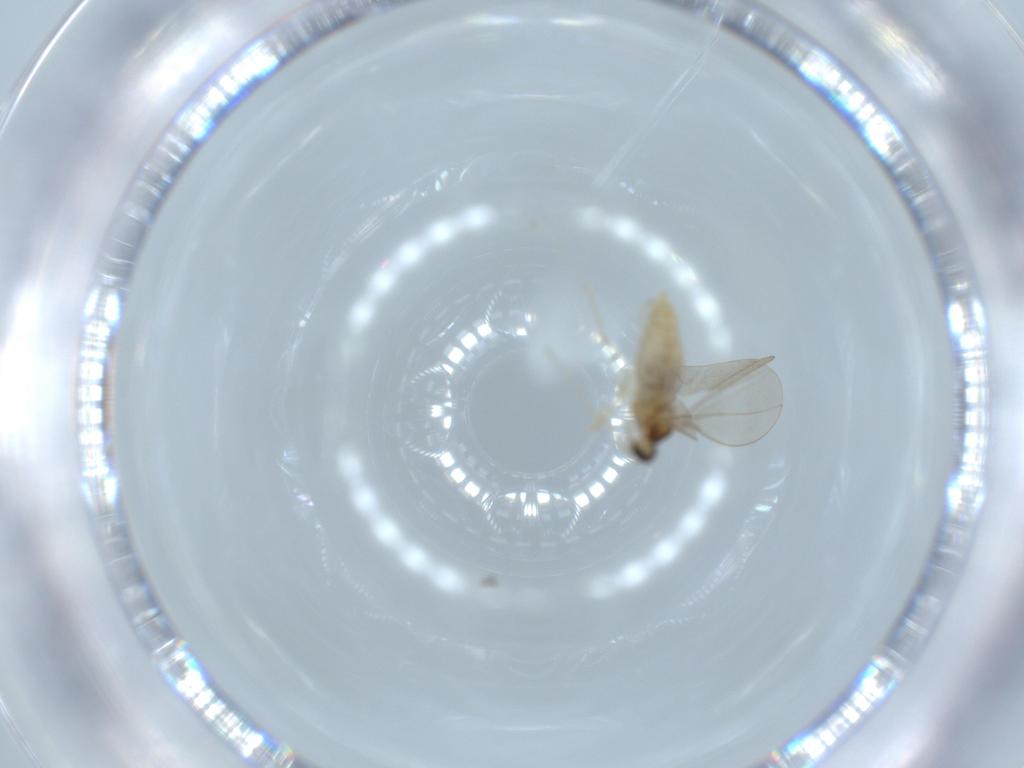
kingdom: Animalia
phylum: Arthropoda
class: Insecta
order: Diptera
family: Cecidomyiidae
